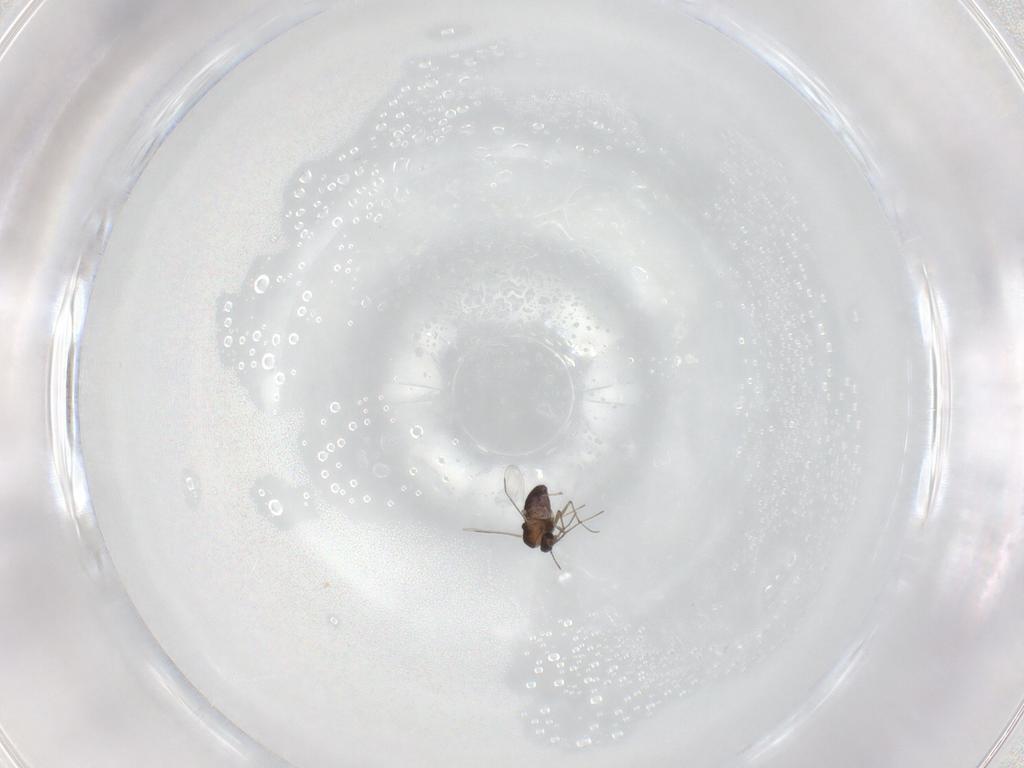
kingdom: Animalia
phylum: Arthropoda
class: Insecta
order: Diptera
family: Chironomidae
